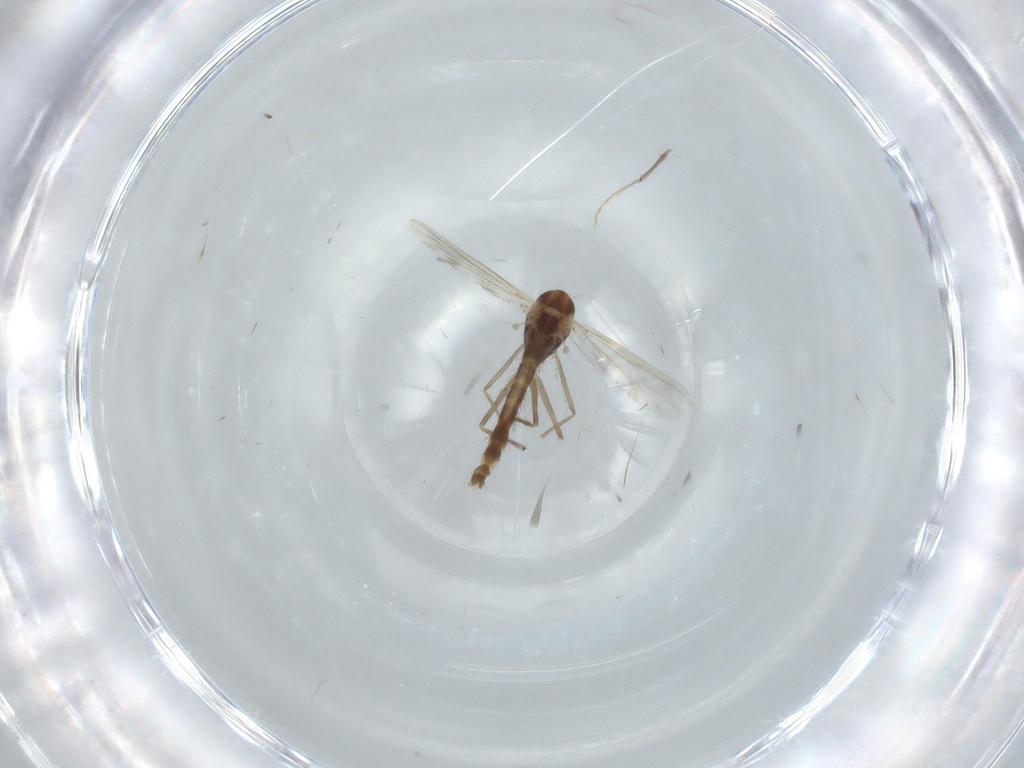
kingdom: Animalia
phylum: Arthropoda
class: Insecta
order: Diptera
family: Chironomidae
